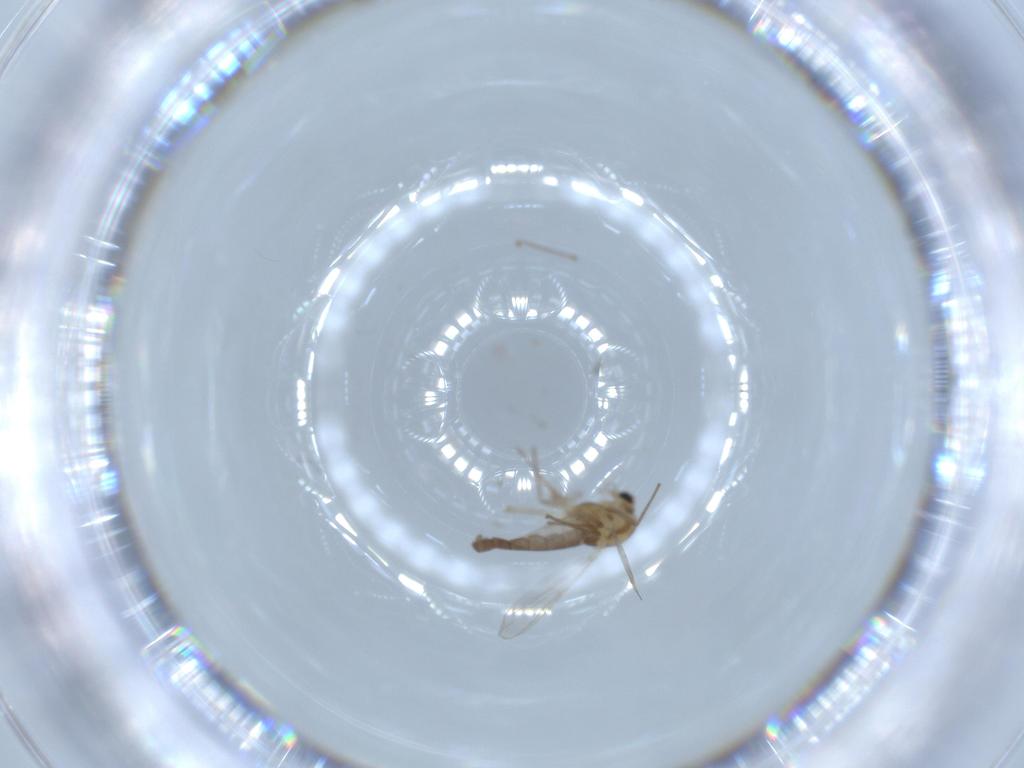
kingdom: Animalia
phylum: Arthropoda
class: Insecta
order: Diptera
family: Chironomidae
